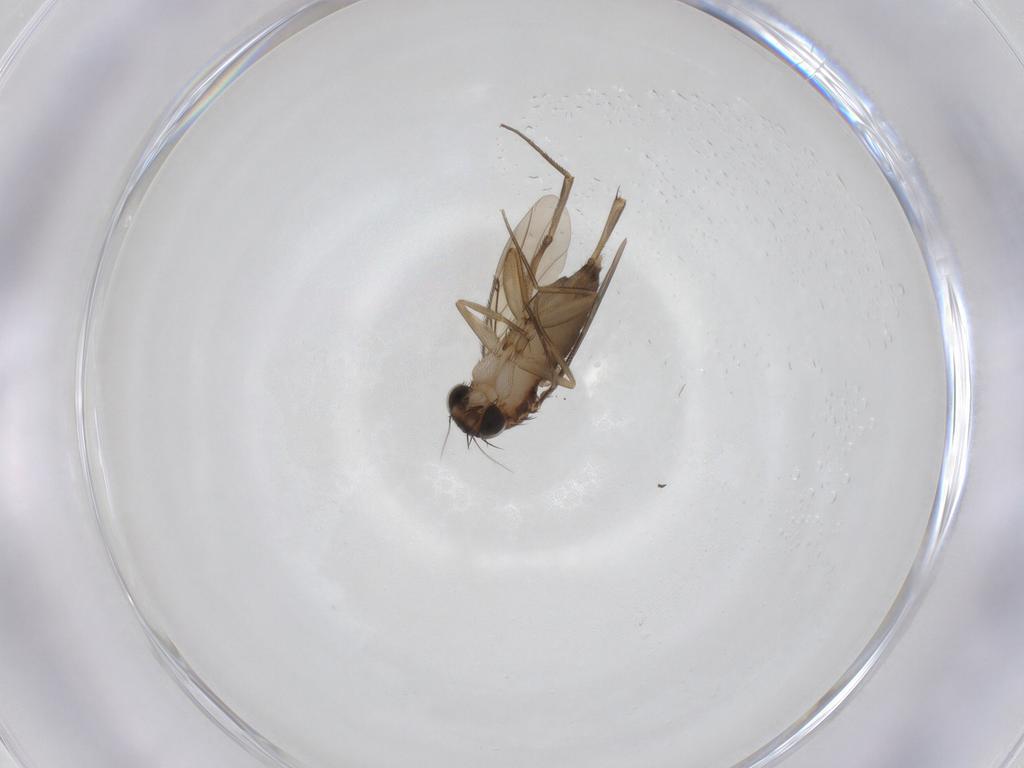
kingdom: Animalia
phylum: Arthropoda
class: Insecta
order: Diptera
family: Phoridae
